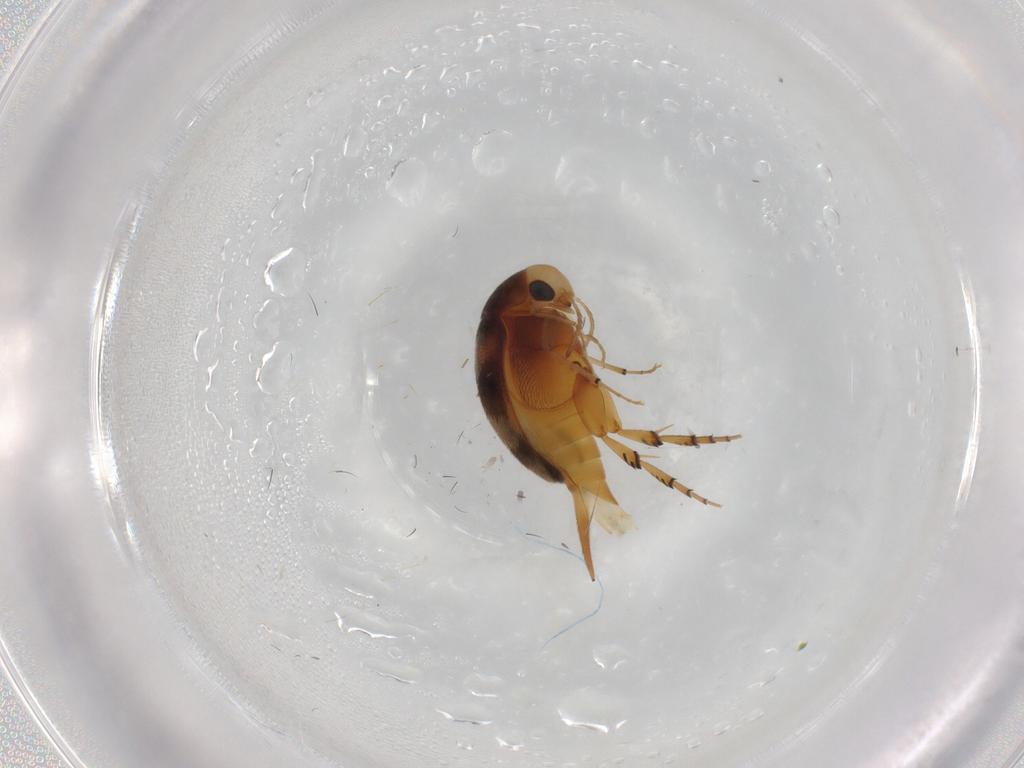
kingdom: Animalia
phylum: Arthropoda
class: Insecta
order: Coleoptera
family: Mordellidae
